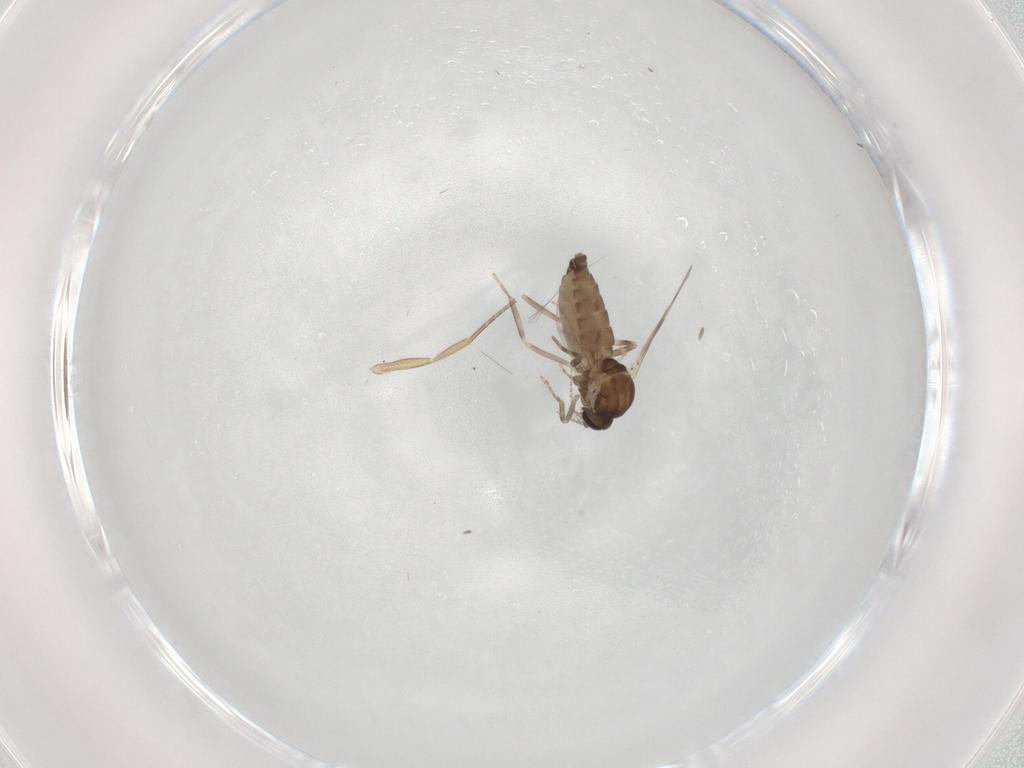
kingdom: Animalia
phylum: Arthropoda
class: Insecta
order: Diptera
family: Ceratopogonidae
